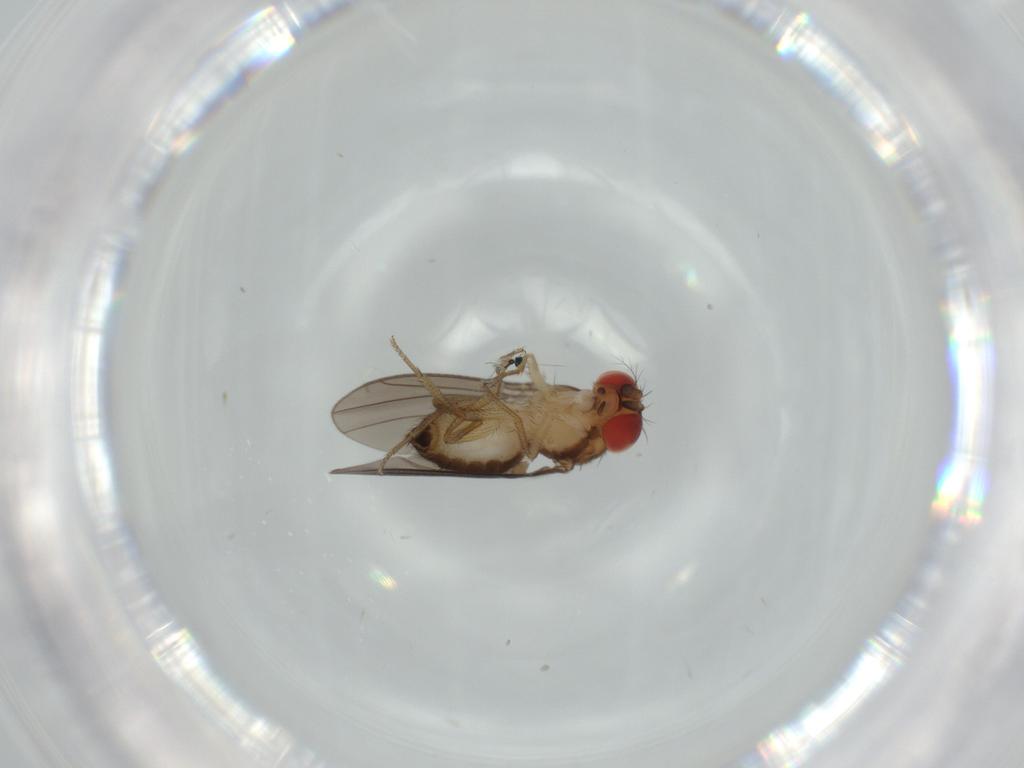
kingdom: Animalia
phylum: Arthropoda
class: Insecta
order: Diptera
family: Drosophilidae
